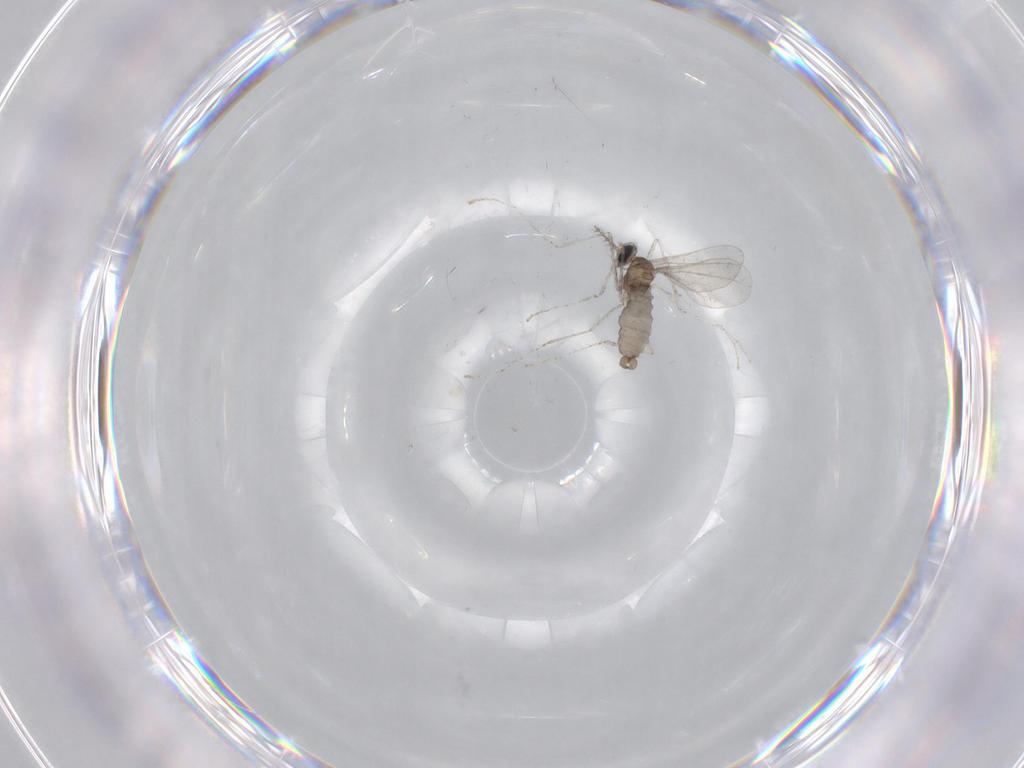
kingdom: Animalia
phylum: Arthropoda
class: Insecta
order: Diptera
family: Cecidomyiidae
